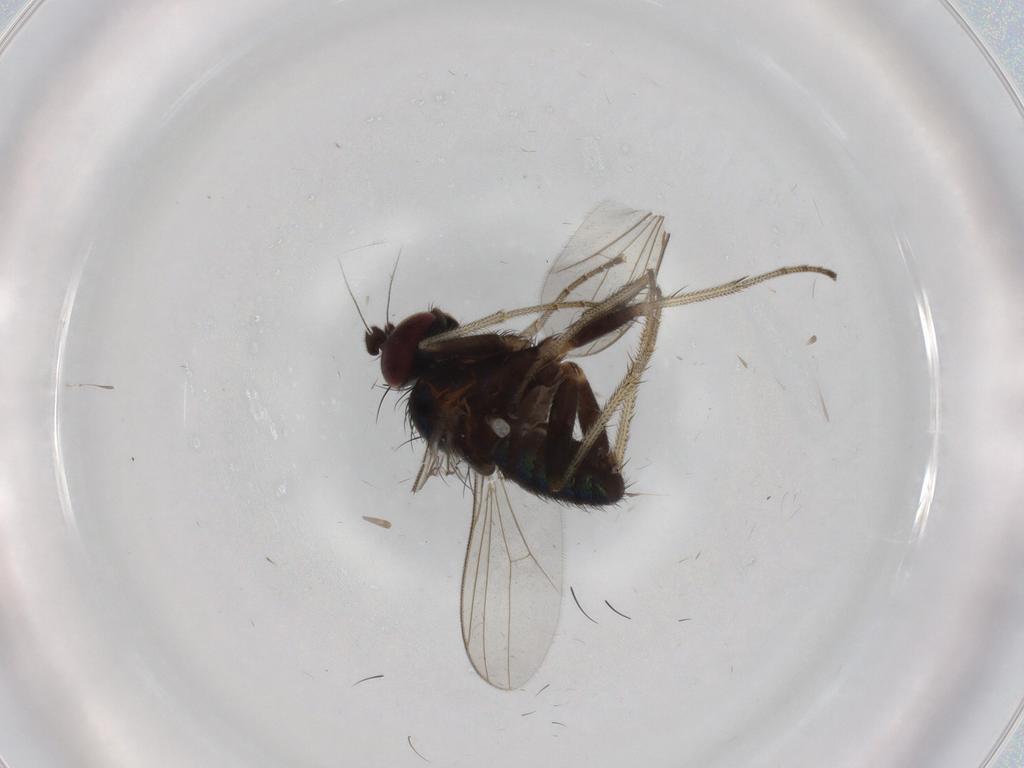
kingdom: Animalia
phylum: Arthropoda
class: Insecta
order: Diptera
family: Dolichopodidae
